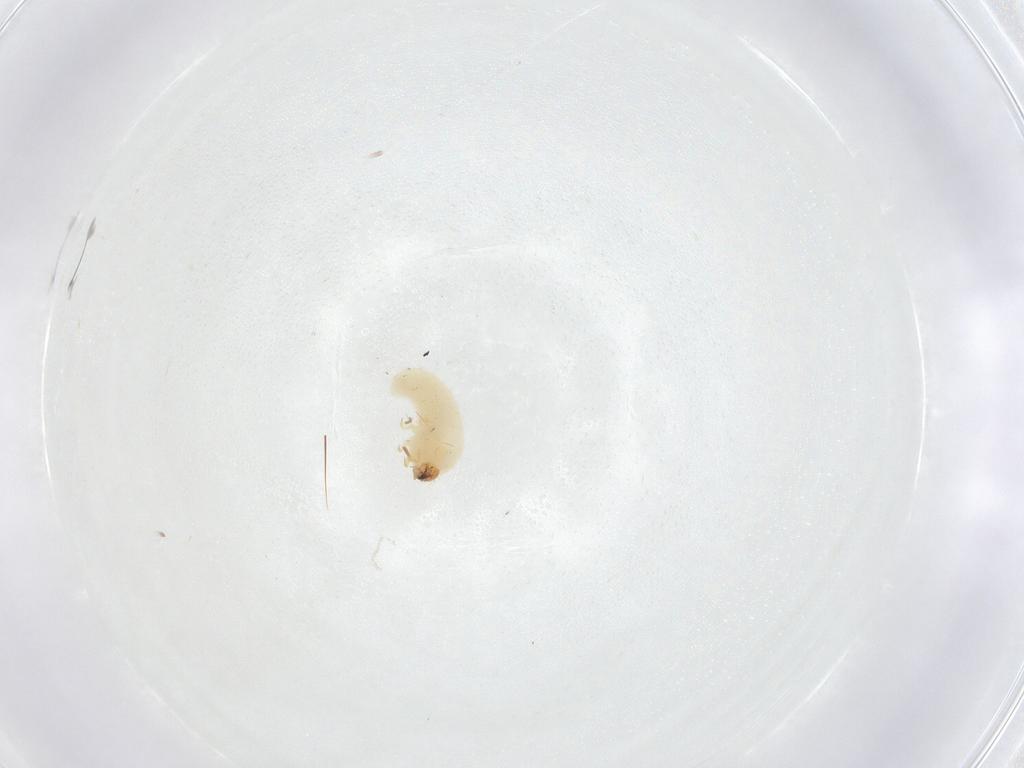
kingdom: Animalia
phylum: Arthropoda
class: Insecta
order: Coleoptera
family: Bostrichidae
